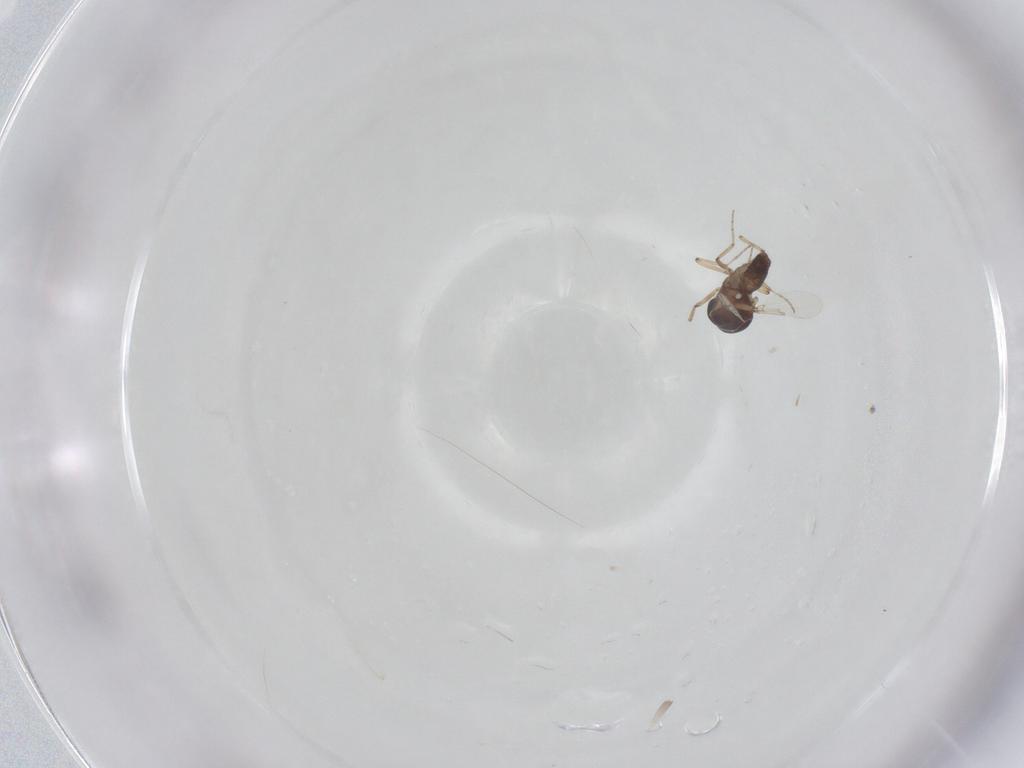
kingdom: Animalia
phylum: Arthropoda
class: Insecta
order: Diptera
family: Ceratopogonidae
